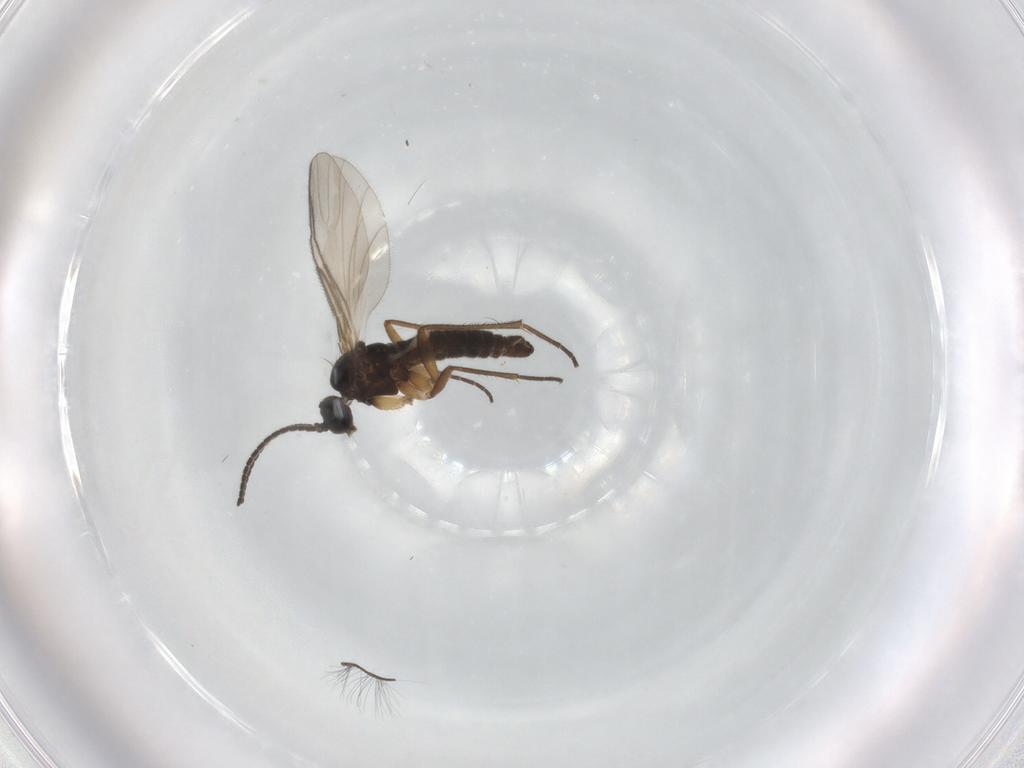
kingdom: Animalia
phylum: Arthropoda
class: Insecta
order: Diptera
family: Sciaridae
